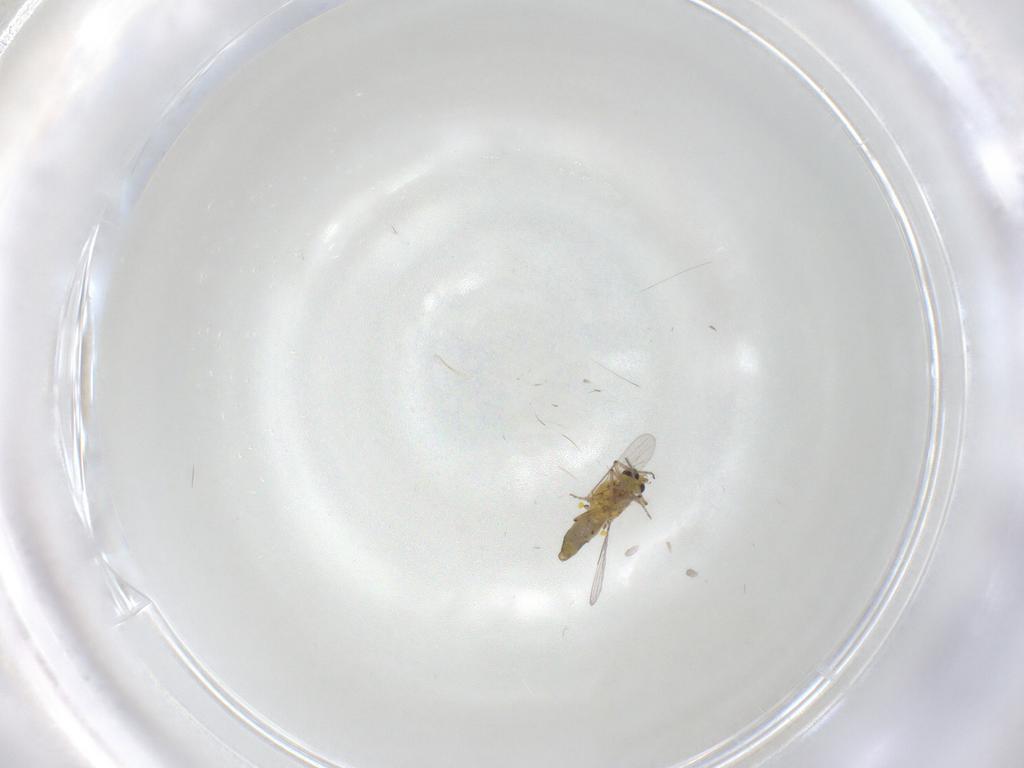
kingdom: Animalia
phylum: Arthropoda
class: Insecta
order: Diptera
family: Ceratopogonidae
